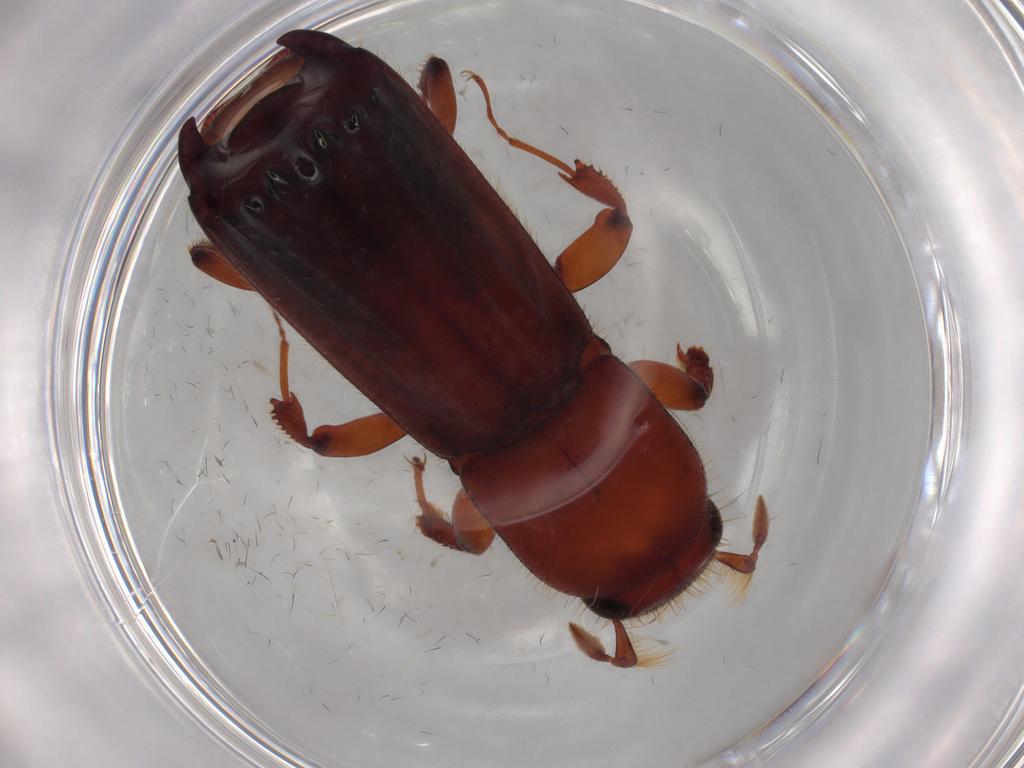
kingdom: Animalia
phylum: Arthropoda
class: Insecta
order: Coleoptera
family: Curculionidae
